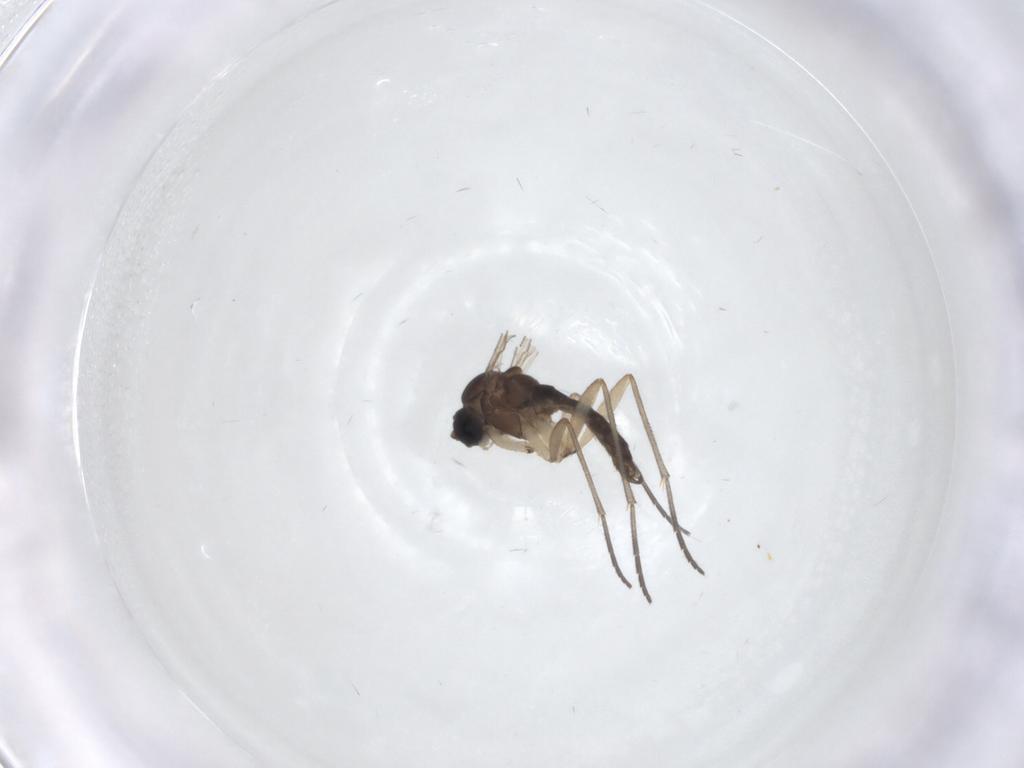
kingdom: Animalia
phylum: Arthropoda
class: Insecta
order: Diptera
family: Sciaridae
